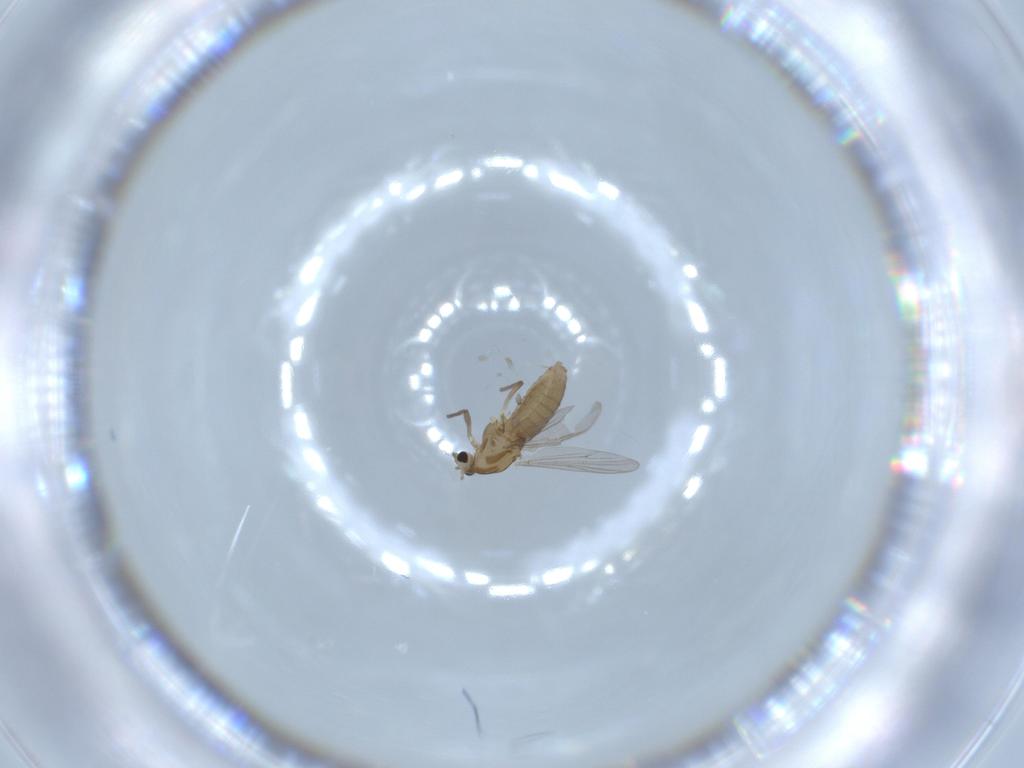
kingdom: Animalia
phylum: Arthropoda
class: Insecta
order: Diptera
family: Chironomidae
